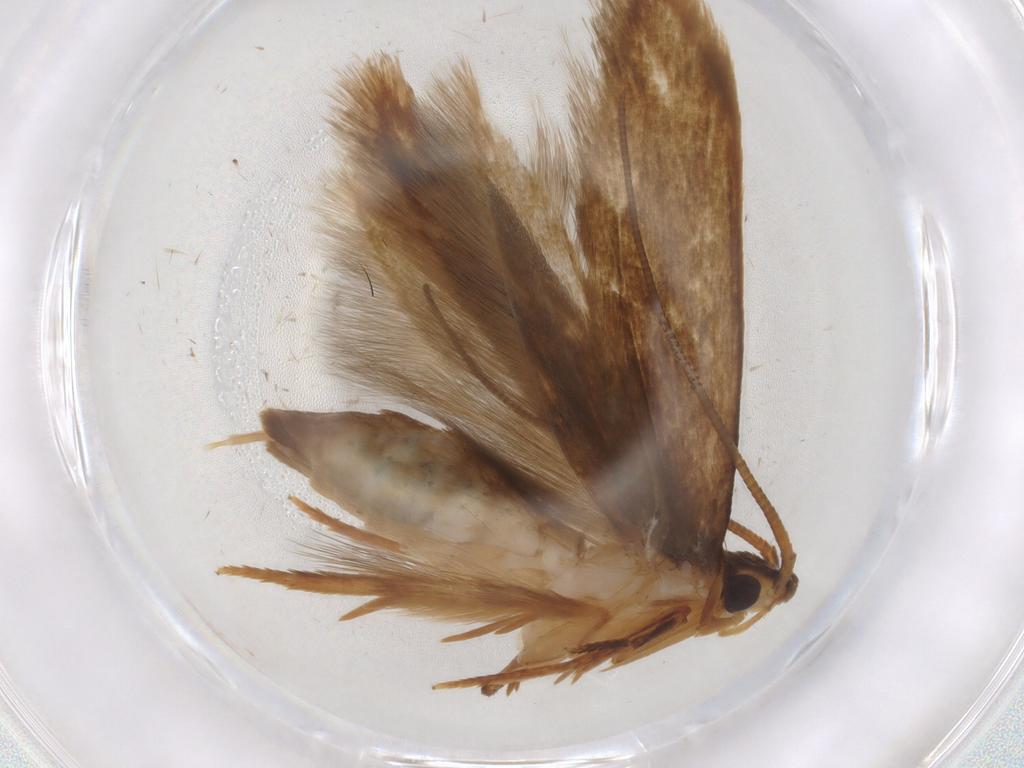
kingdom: Animalia
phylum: Arthropoda
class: Insecta
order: Lepidoptera
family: Tineidae
